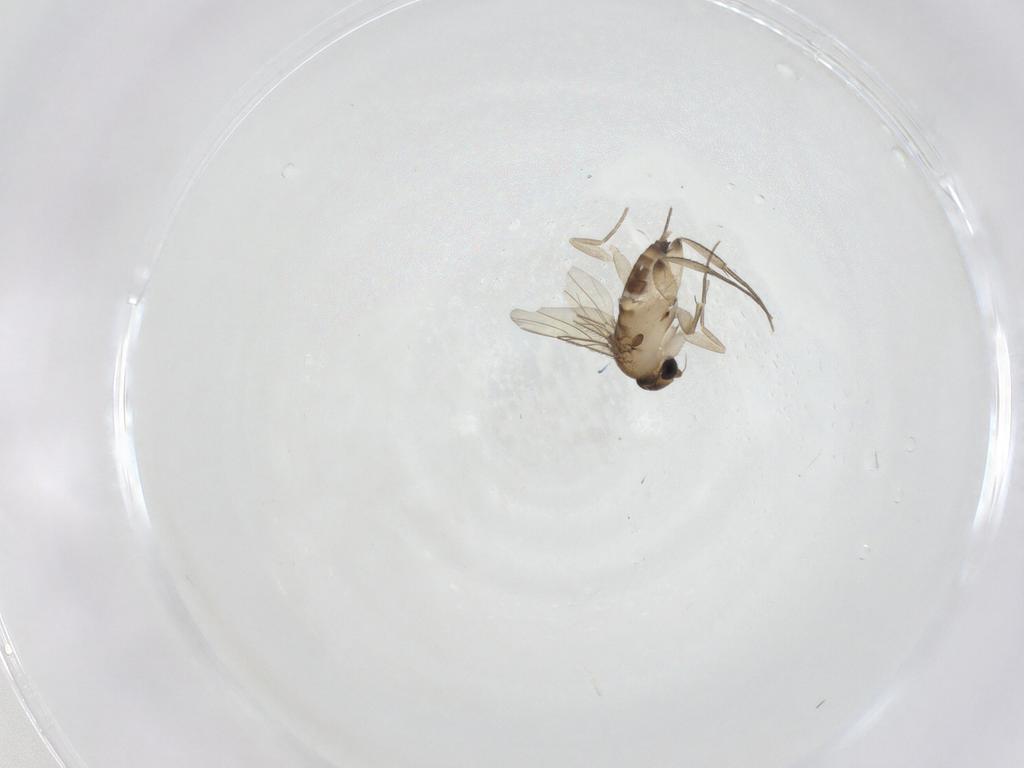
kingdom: Animalia
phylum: Arthropoda
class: Insecta
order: Diptera
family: Phoridae
